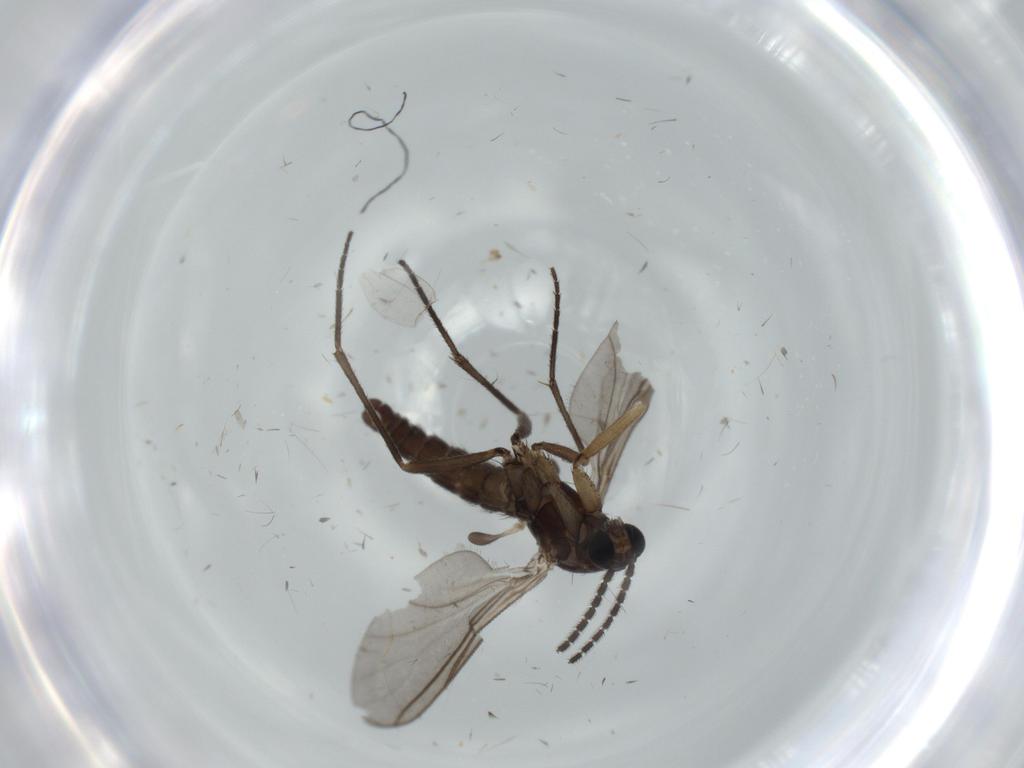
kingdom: Animalia
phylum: Arthropoda
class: Insecta
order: Diptera
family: Sciaridae
